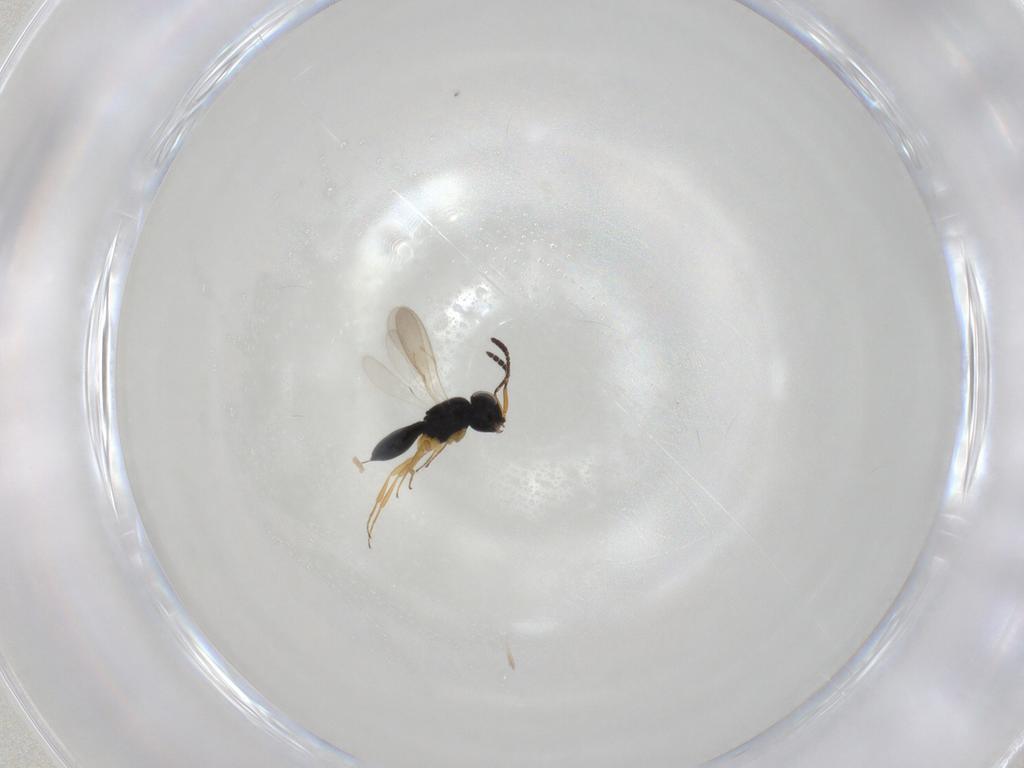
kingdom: Animalia
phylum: Arthropoda
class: Insecta
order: Hymenoptera
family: Scelionidae
